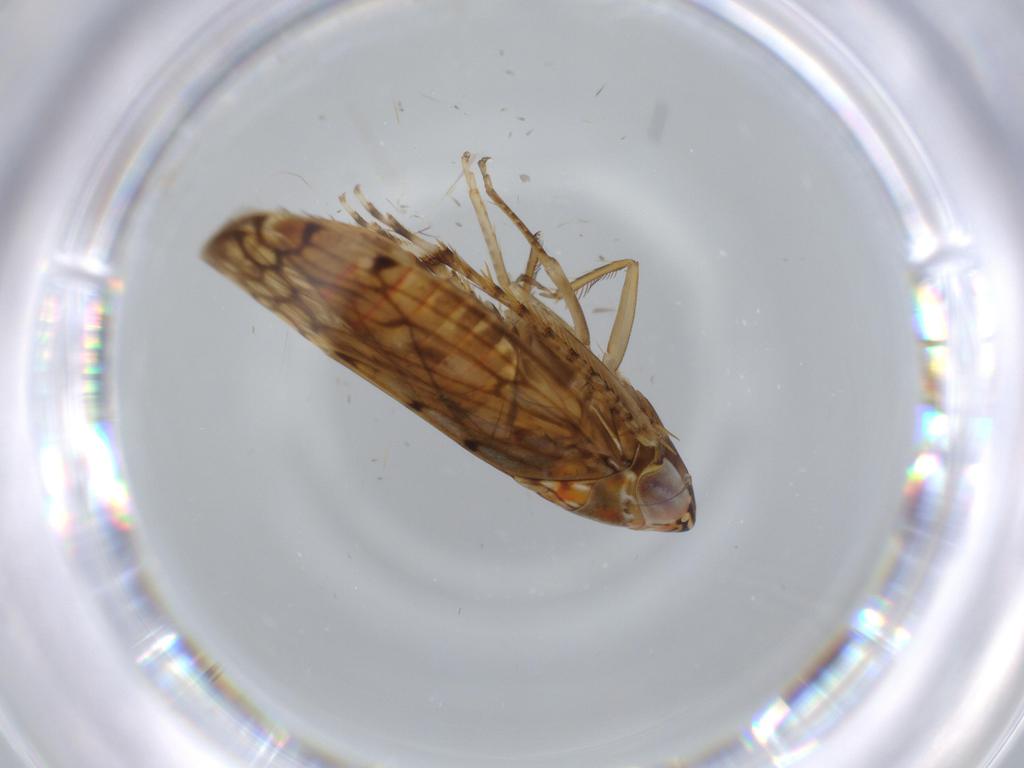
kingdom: Animalia
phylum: Arthropoda
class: Insecta
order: Hemiptera
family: Cicadellidae
